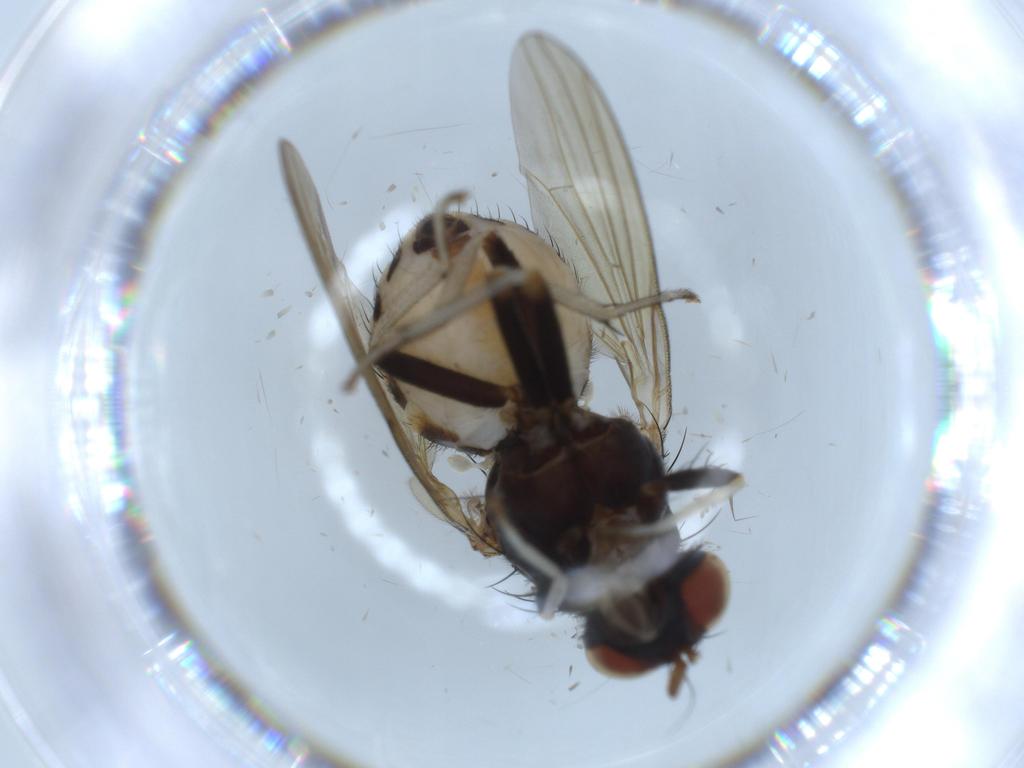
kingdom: Animalia
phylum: Arthropoda
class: Insecta
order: Diptera
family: Lauxaniidae
